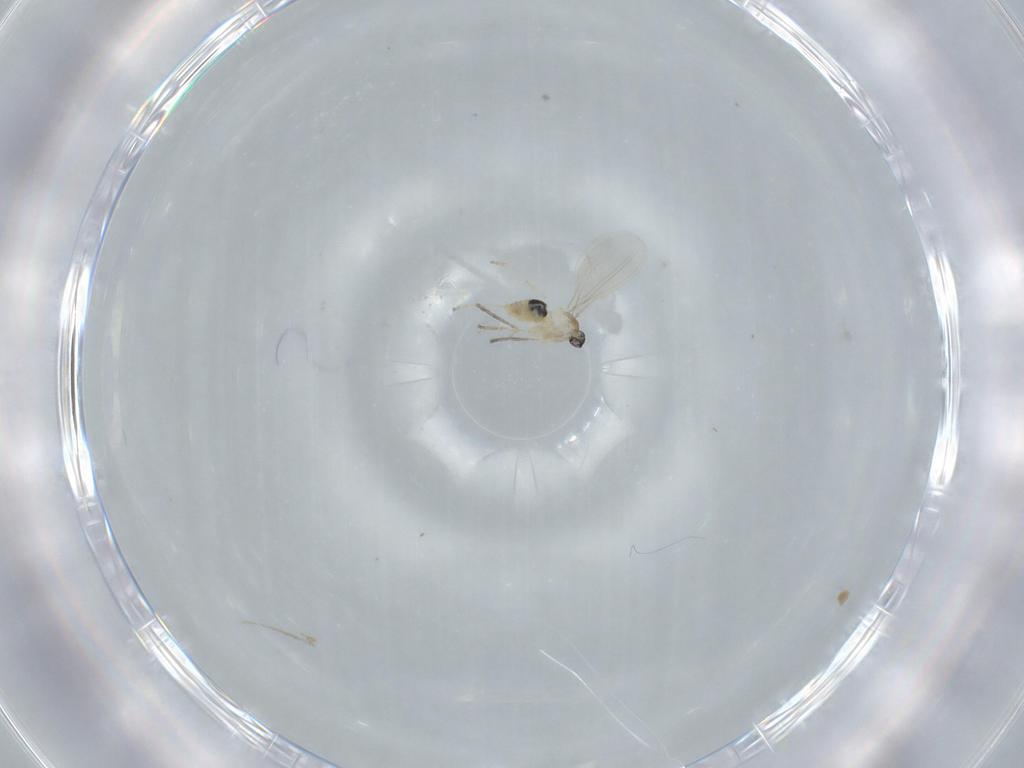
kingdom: Animalia
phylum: Arthropoda
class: Insecta
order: Diptera
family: Cecidomyiidae
